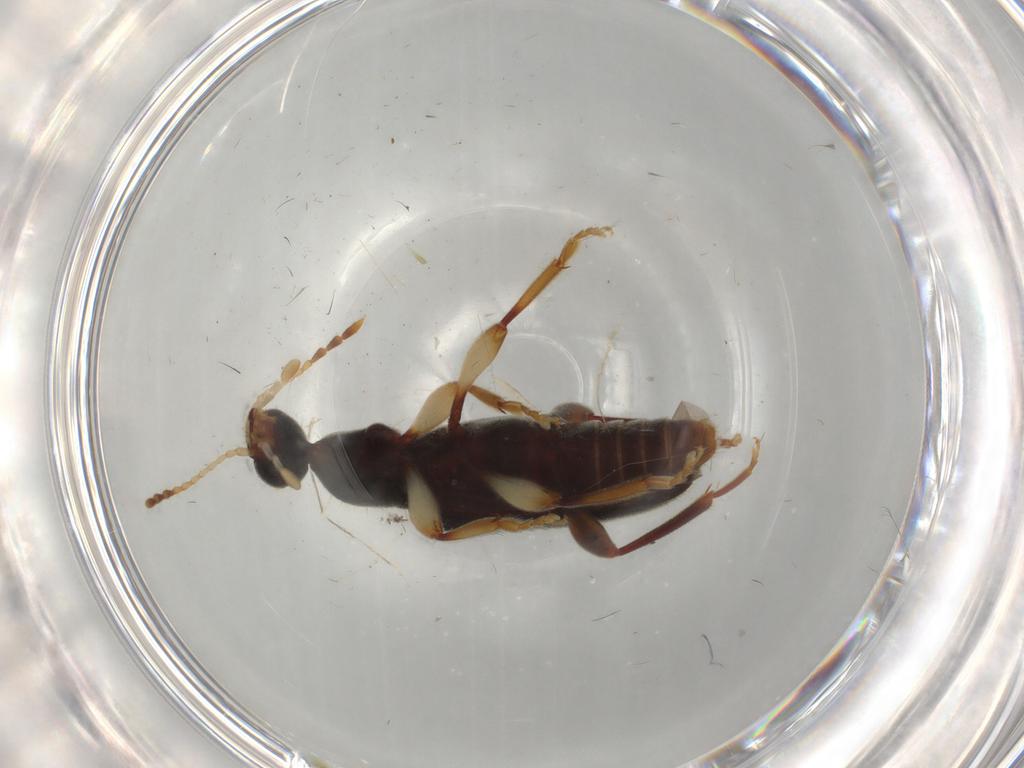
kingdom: Animalia
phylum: Arthropoda
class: Insecta
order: Coleoptera
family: Anthicidae
